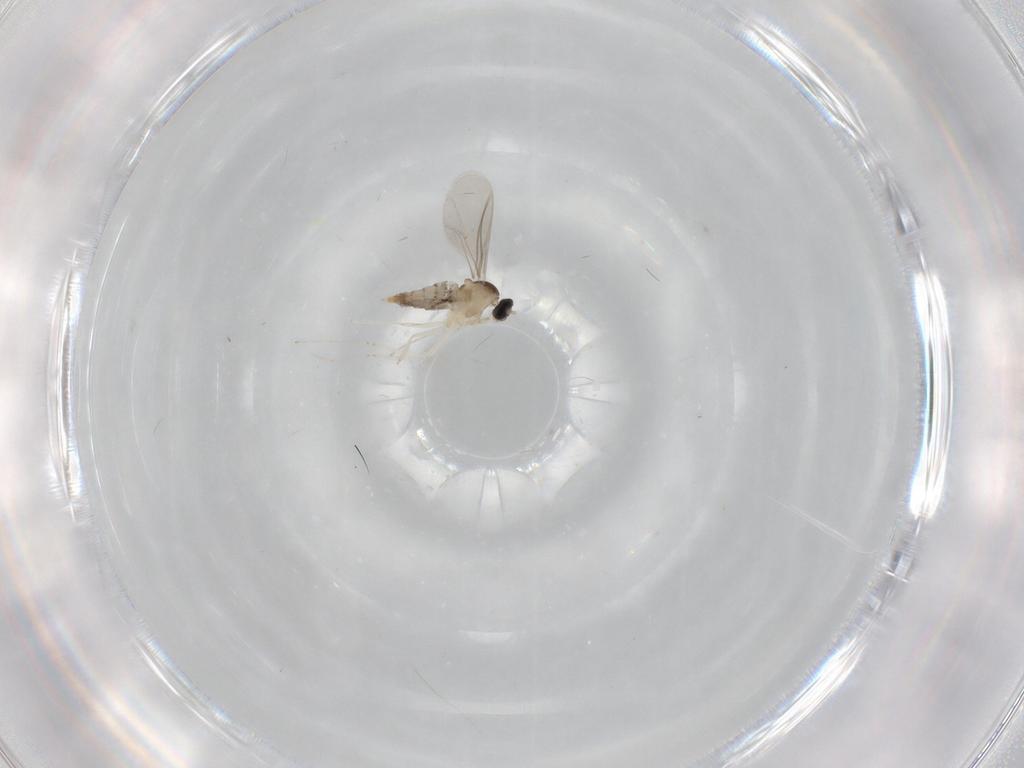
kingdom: Animalia
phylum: Arthropoda
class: Insecta
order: Diptera
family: Cecidomyiidae
